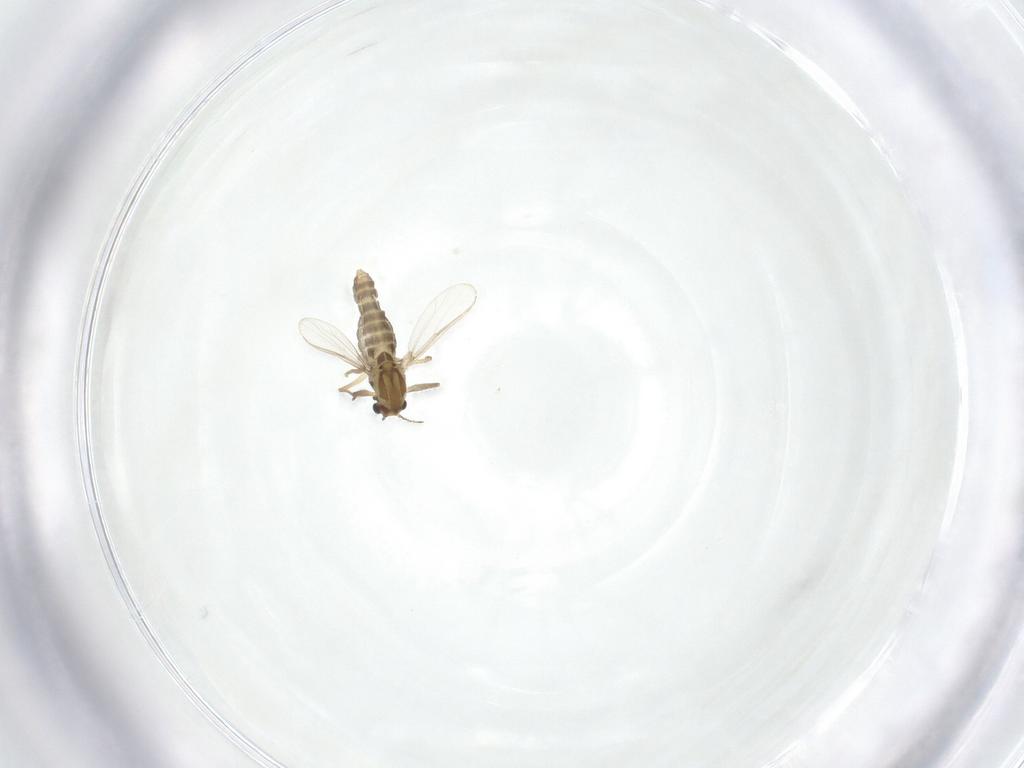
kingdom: Animalia
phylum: Arthropoda
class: Insecta
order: Diptera
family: Chironomidae
